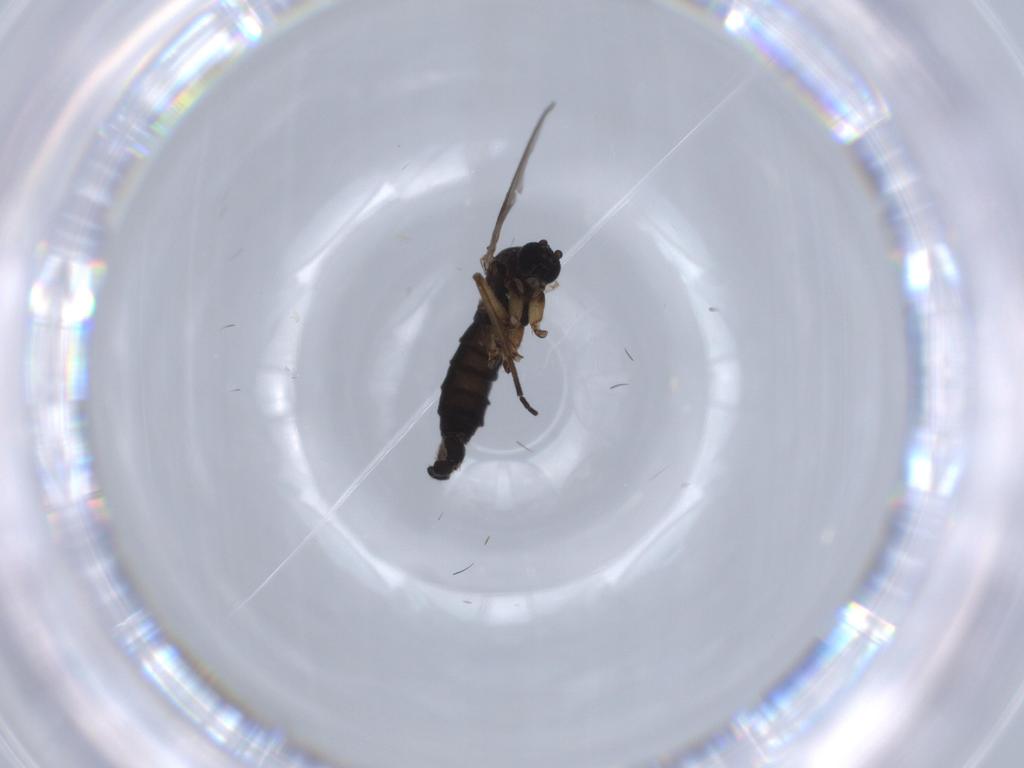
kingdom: Animalia
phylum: Arthropoda
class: Insecta
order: Diptera
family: Sciaridae
